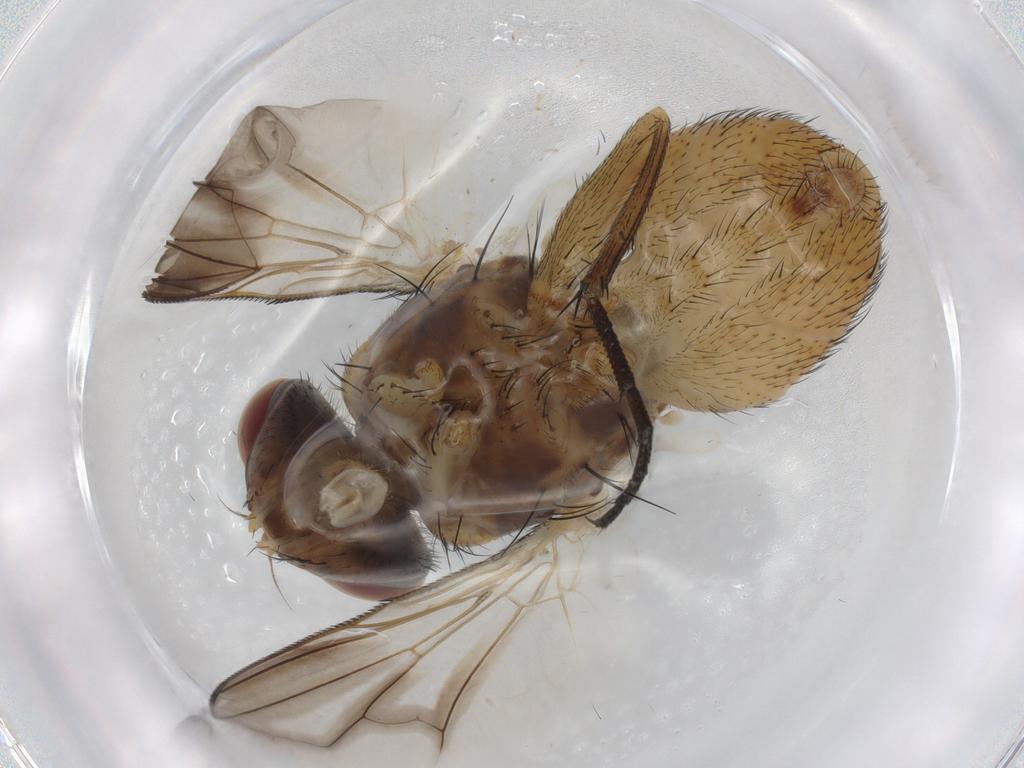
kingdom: Animalia
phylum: Arthropoda
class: Insecta
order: Diptera
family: Calliphoridae
